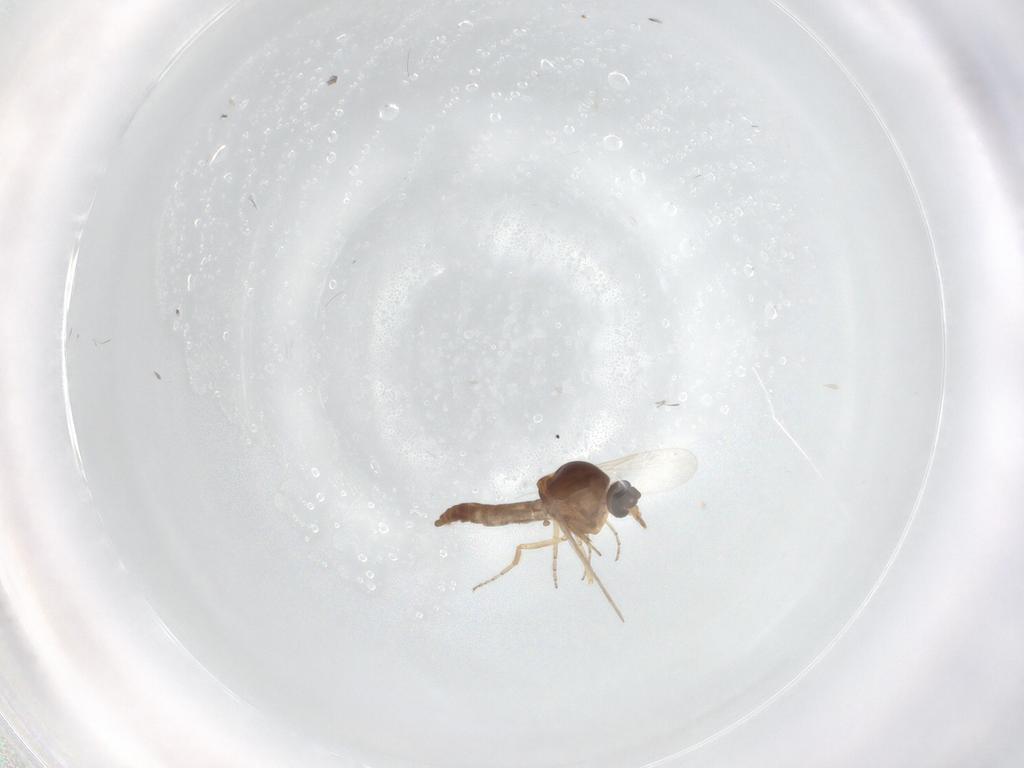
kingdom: Animalia
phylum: Arthropoda
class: Insecta
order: Diptera
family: Ceratopogonidae
